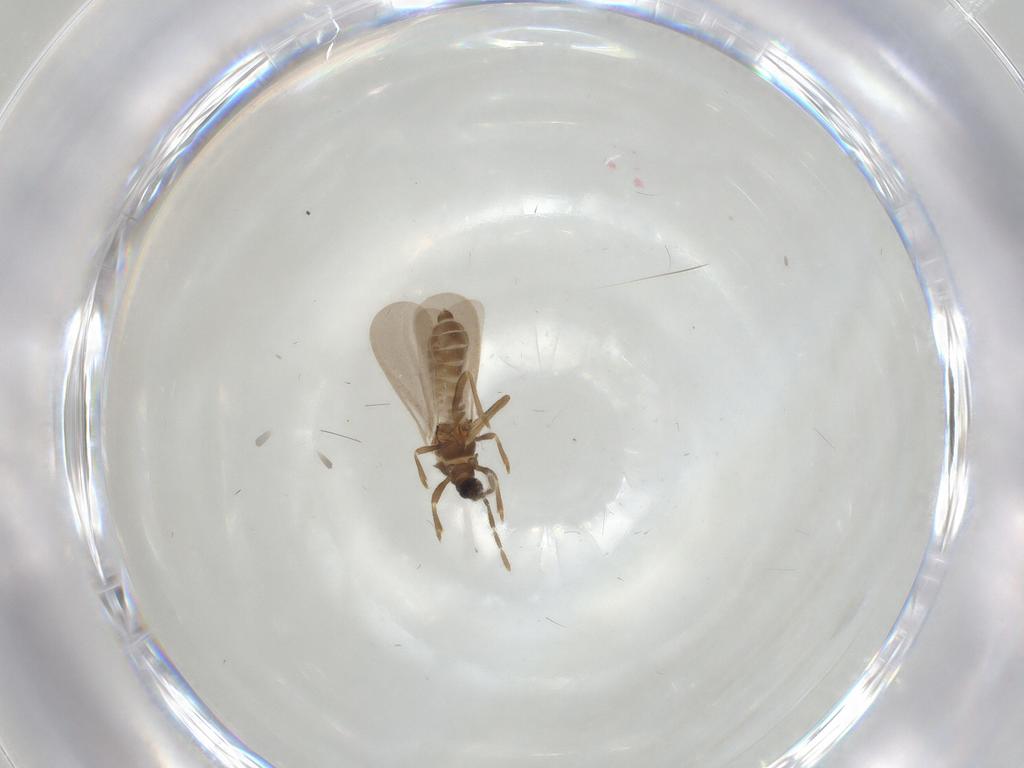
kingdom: Animalia
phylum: Arthropoda
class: Insecta
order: Hemiptera
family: Enicocephalidae
